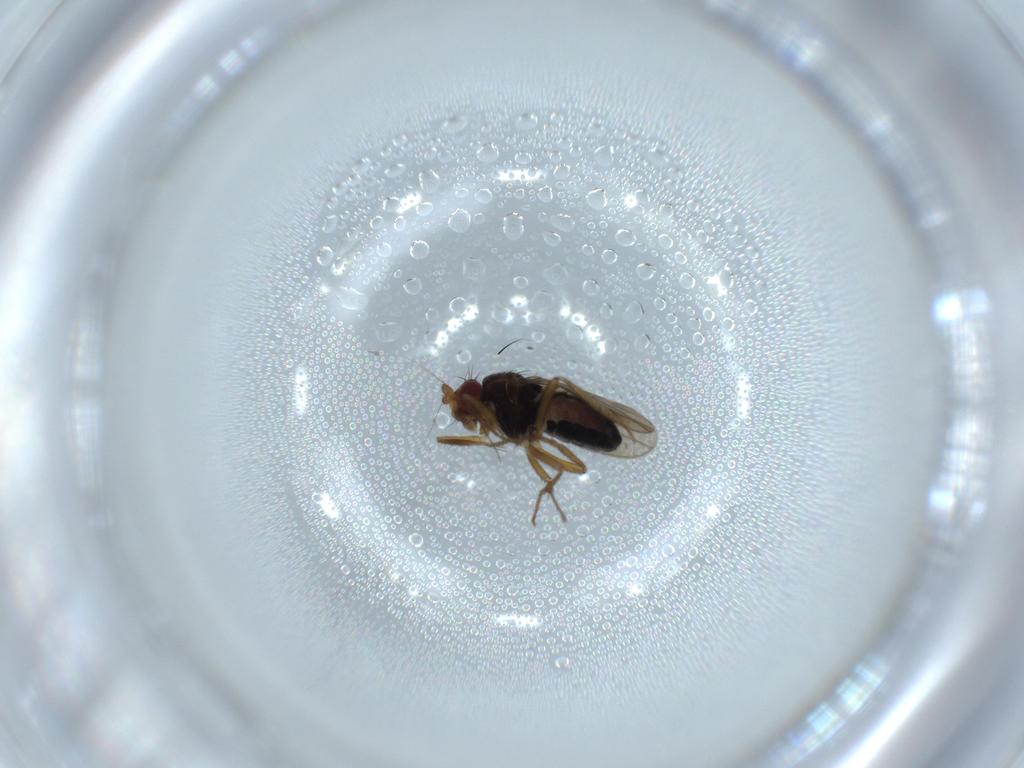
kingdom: Animalia
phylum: Arthropoda
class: Insecta
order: Diptera
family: Sphaeroceridae
